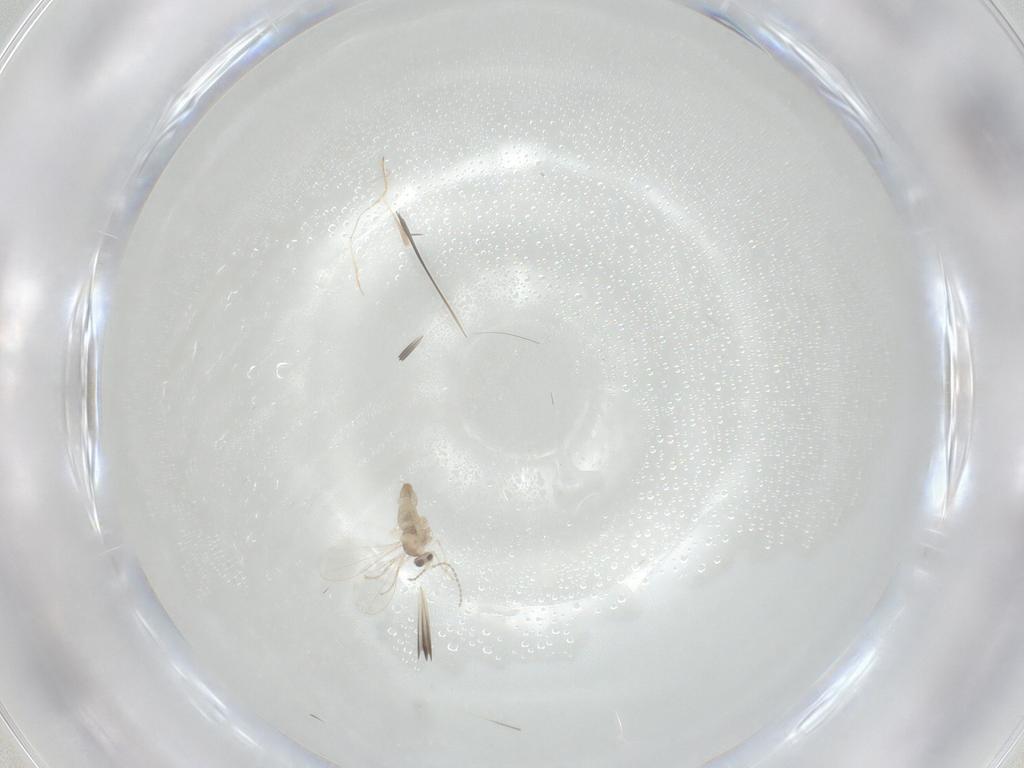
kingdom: Animalia
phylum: Arthropoda
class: Insecta
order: Diptera
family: Cecidomyiidae
